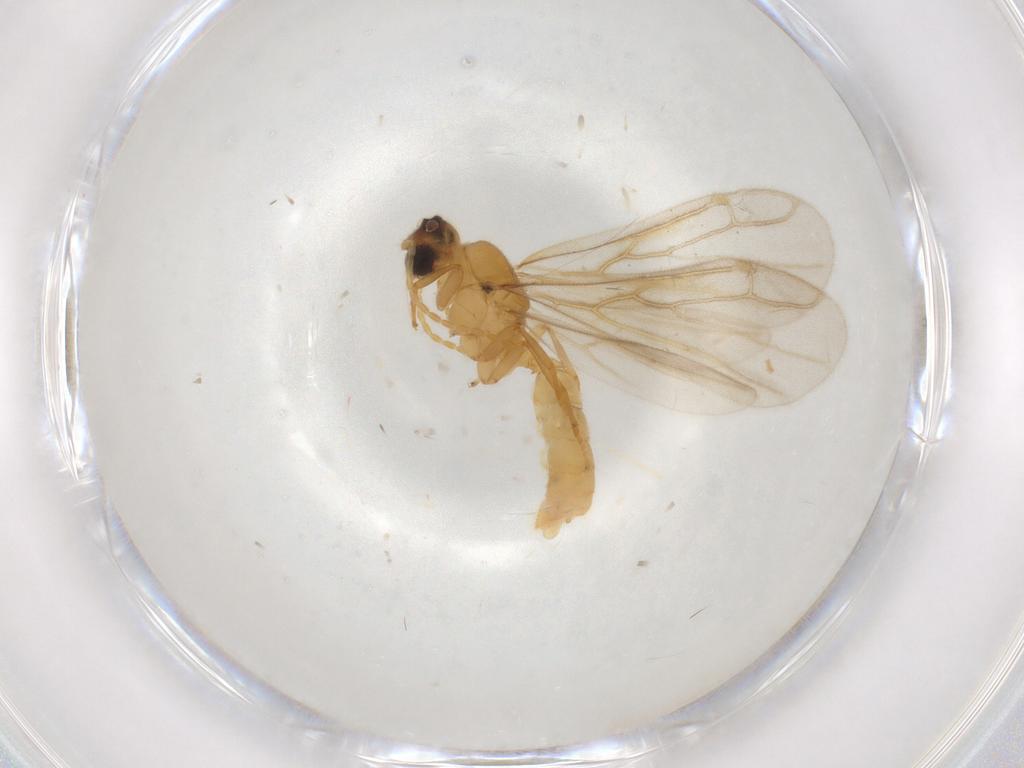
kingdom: Animalia
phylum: Arthropoda
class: Insecta
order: Hymenoptera
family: Formicidae
